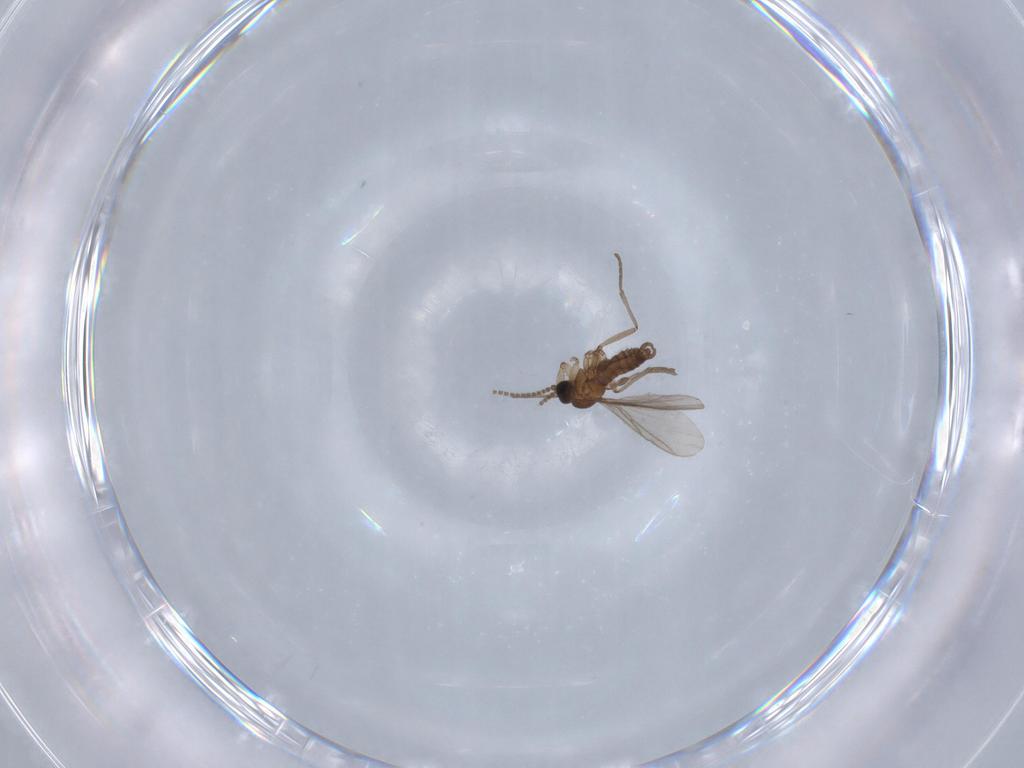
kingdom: Animalia
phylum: Arthropoda
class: Insecta
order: Diptera
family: Sciaridae
